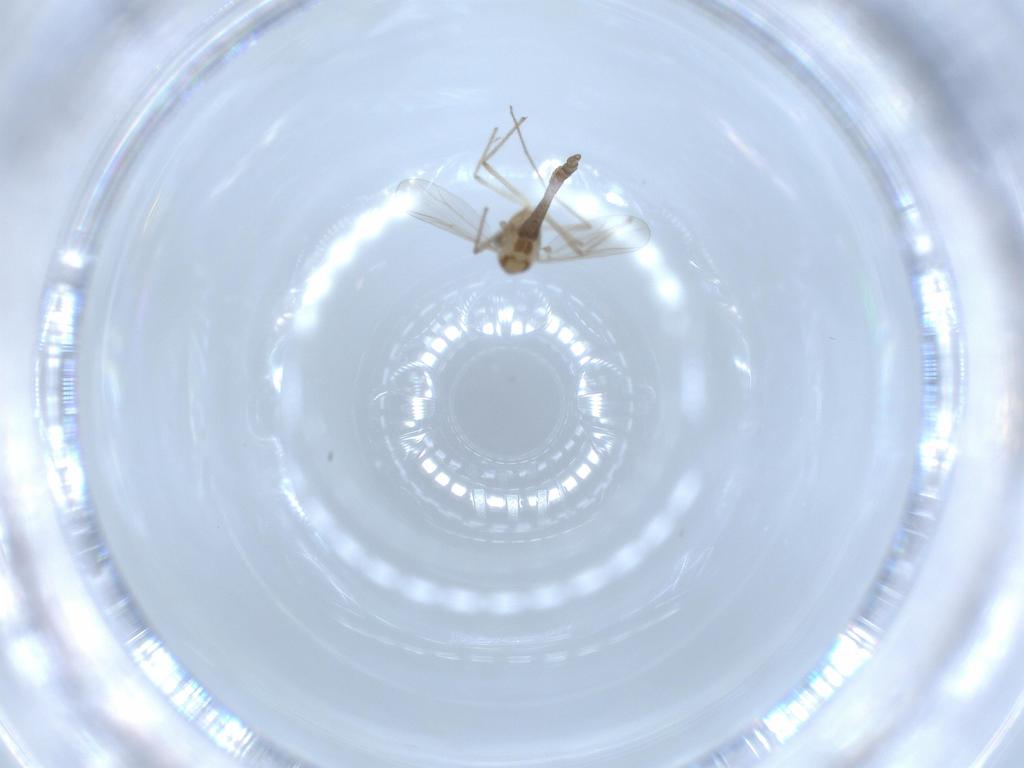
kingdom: Animalia
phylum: Arthropoda
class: Insecta
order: Diptera
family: Chironomidae
